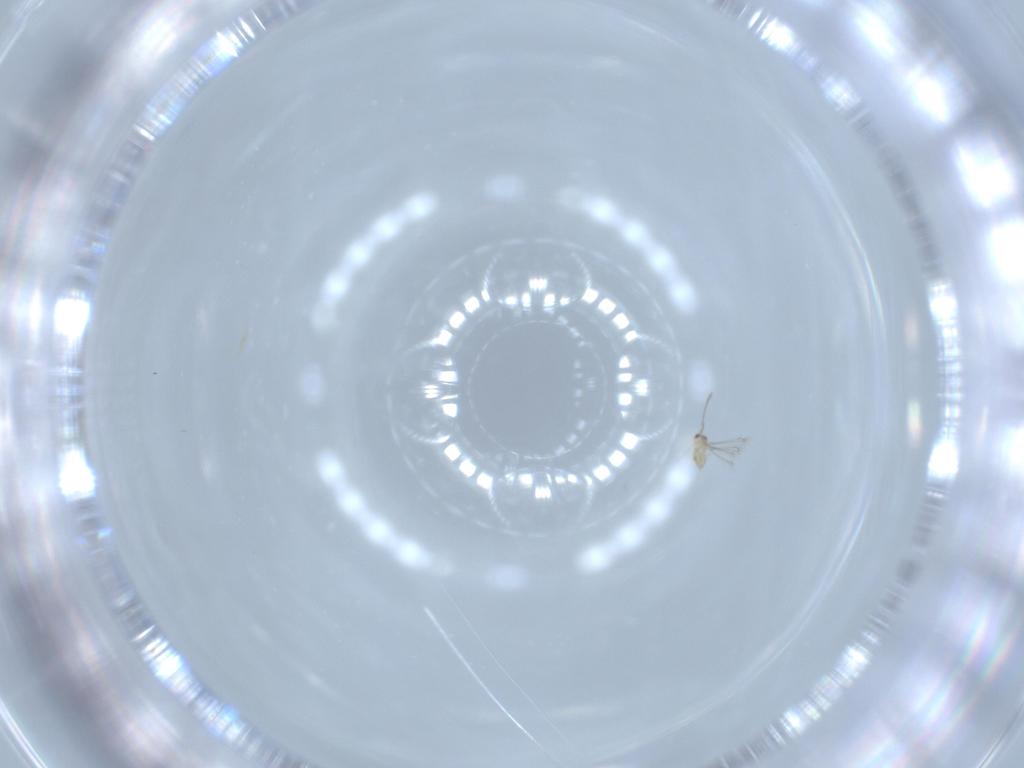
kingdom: Animalia
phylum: Arthropoda
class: Insecta
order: Hymenoptera
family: Mymaridae
